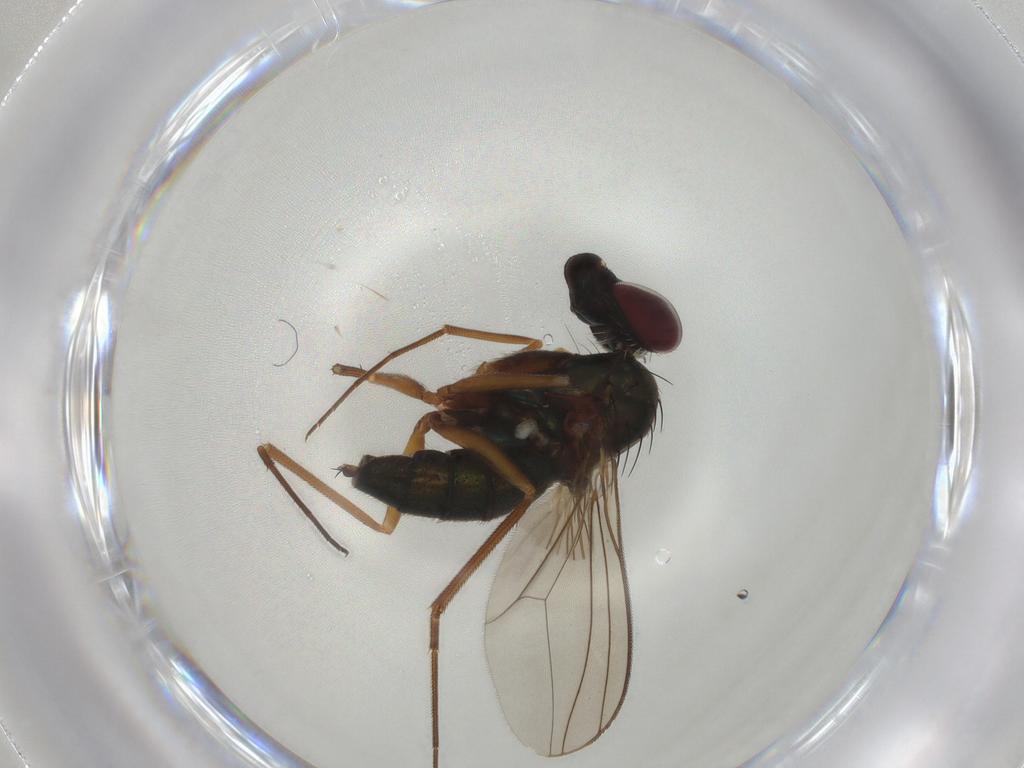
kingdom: Animalia
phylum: Arthropoda
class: Insecta
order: Diptera
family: Dolichopodidae
